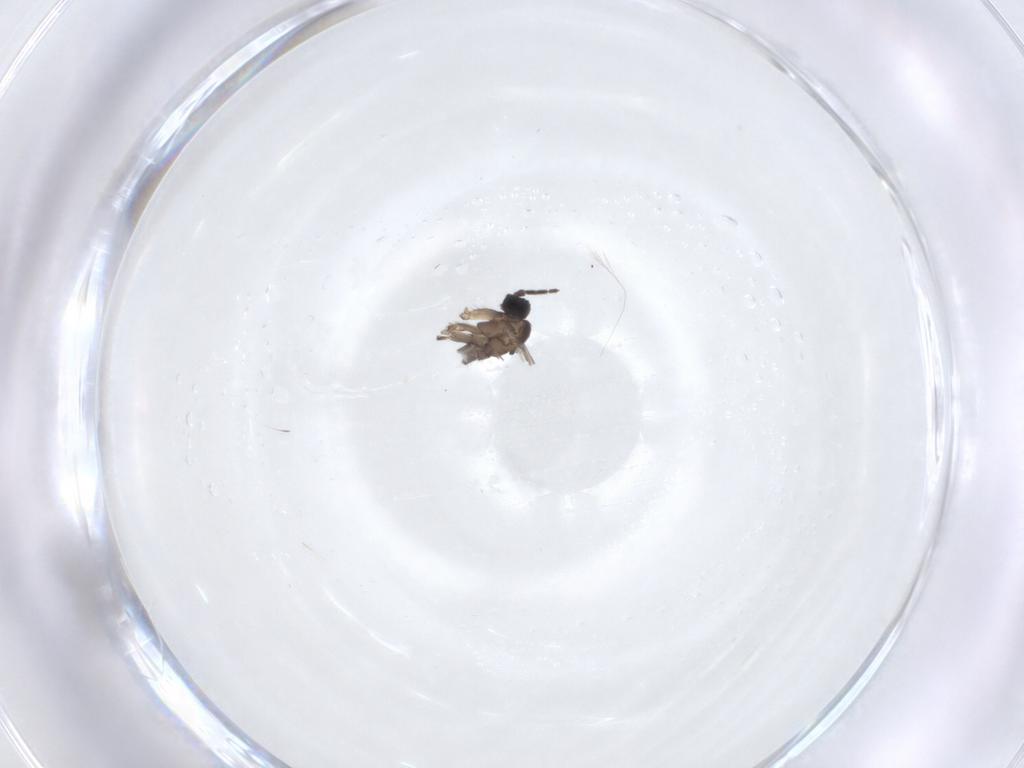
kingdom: Animalia
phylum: Arthropoda
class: Insecta
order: Diptera
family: Sciaridae
